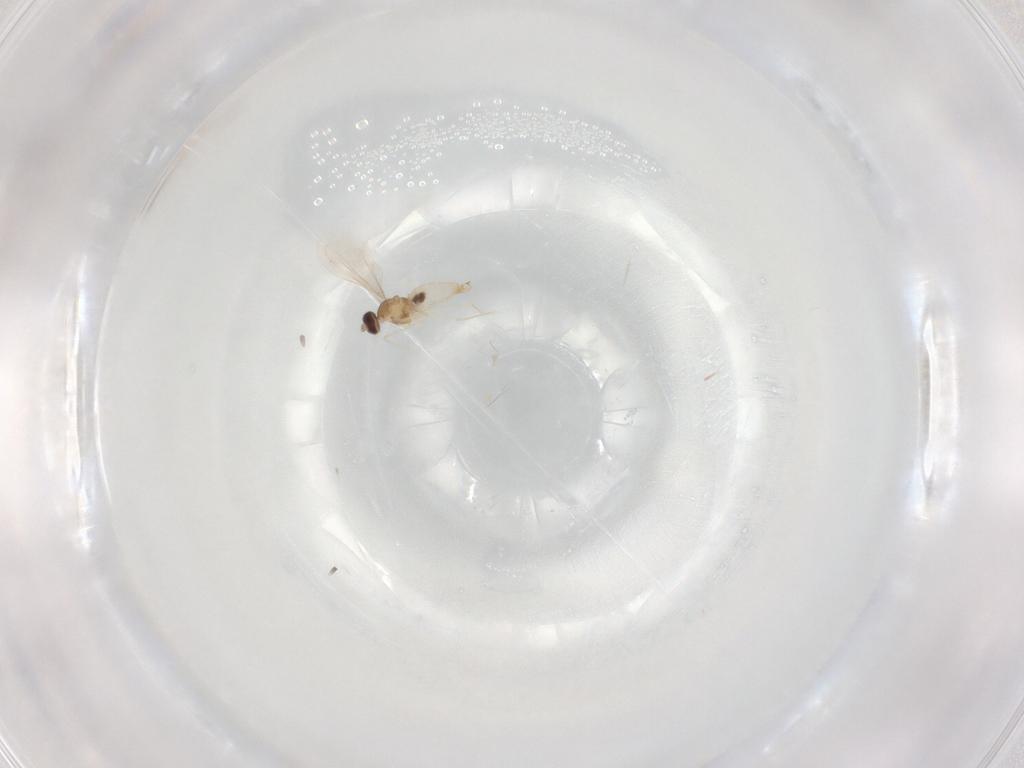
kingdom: Animalia
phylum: Arthropoda
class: Insecta
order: Diptera
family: Cecidomyiidae
